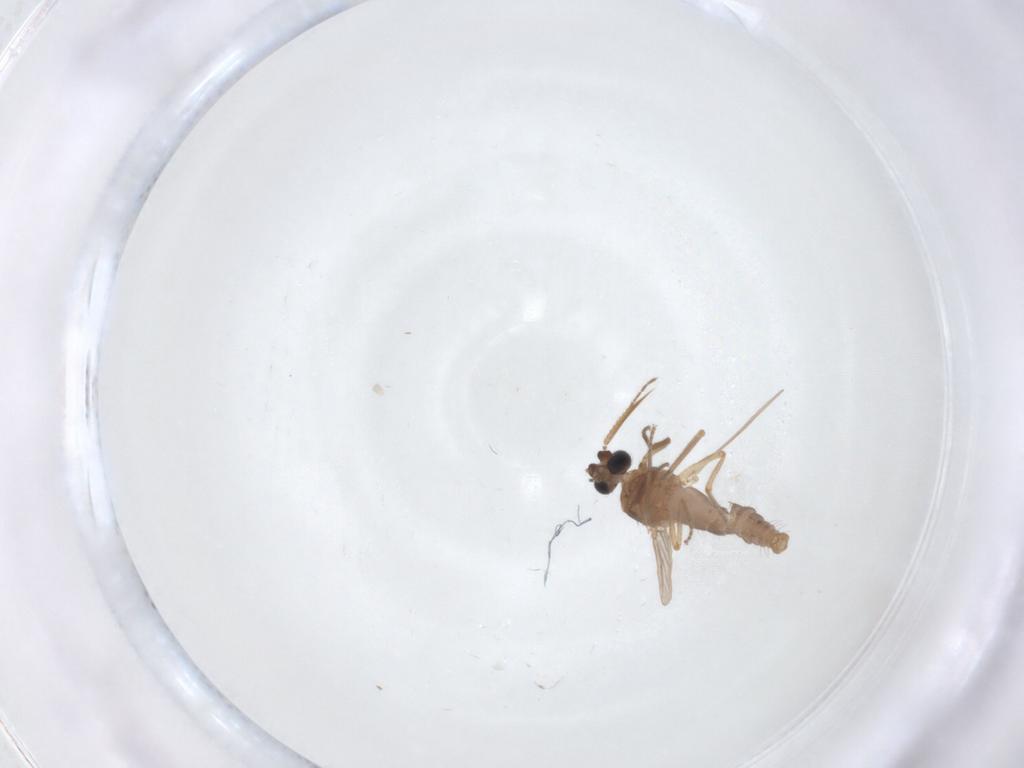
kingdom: Animalia
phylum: Arthropoda
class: Insecta
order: Diptera
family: Ceratopogonidae
